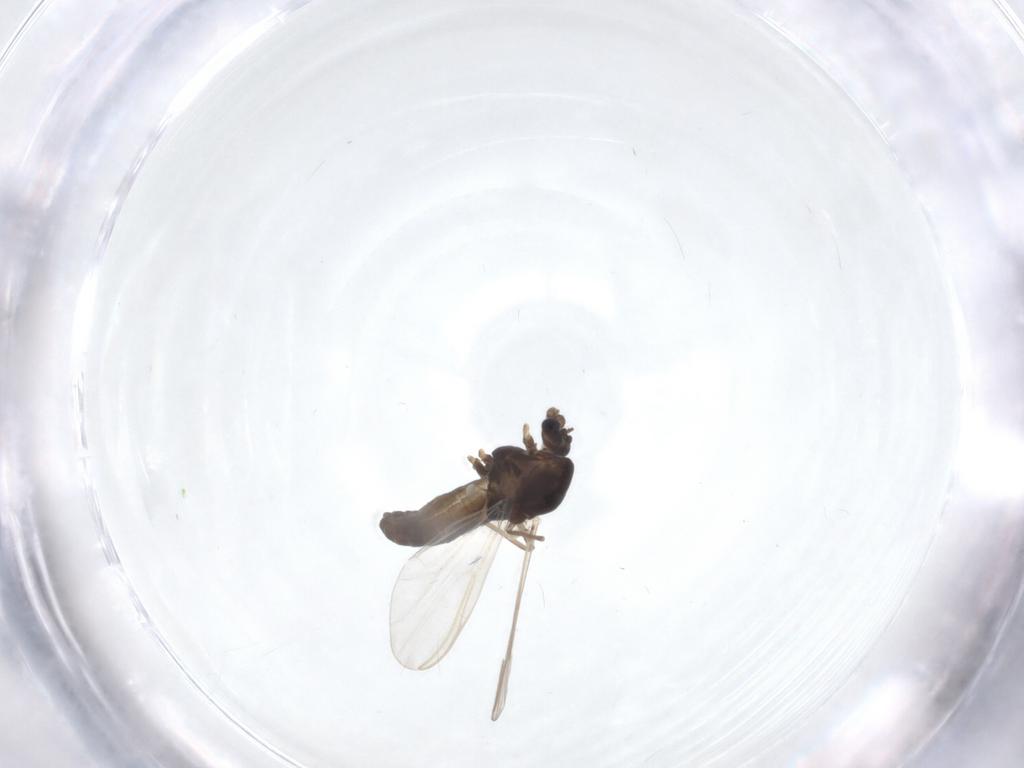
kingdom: Animalia
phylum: Arthropoda
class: Insecta
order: Diptera
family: Chironomidae
